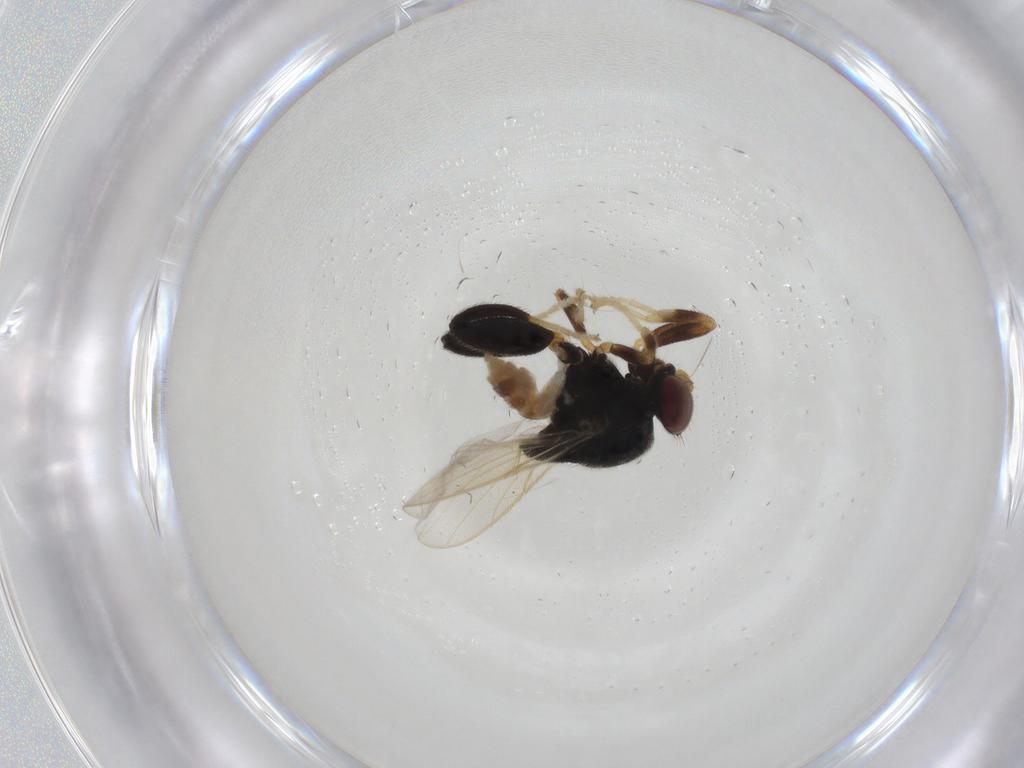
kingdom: Animalia
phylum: Arthropoda
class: Insecta
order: Diptera
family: Chloropidae
